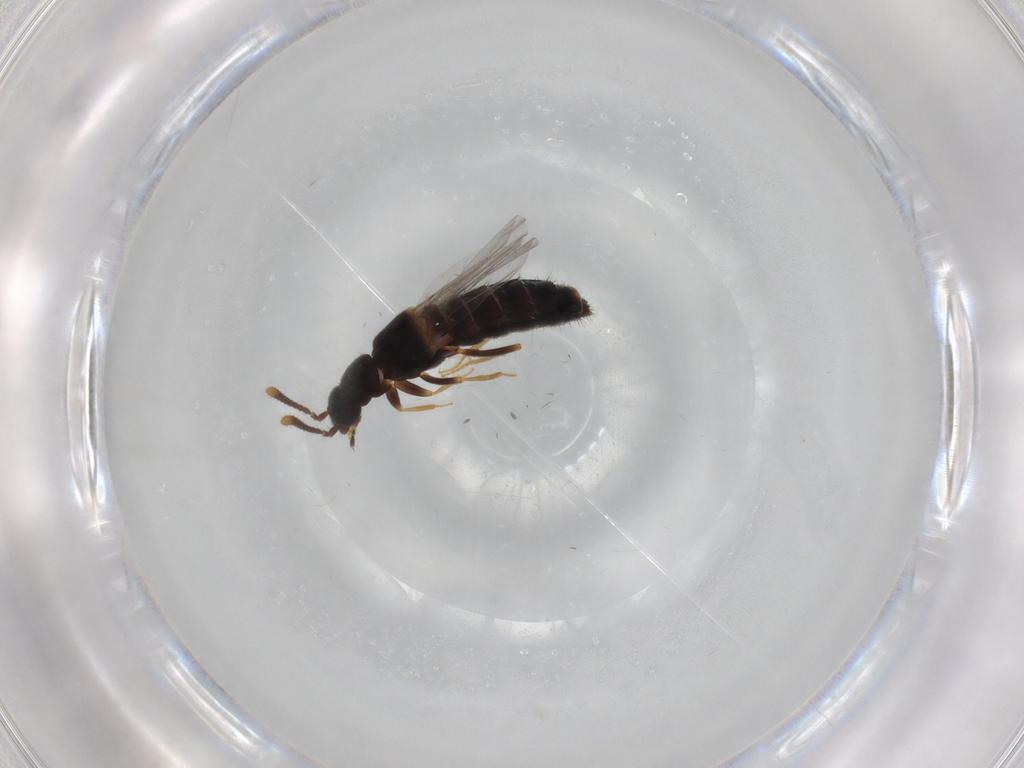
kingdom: Animalia
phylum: Arthropoda
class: Insecta
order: Coleoptera
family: Staphylinidae
